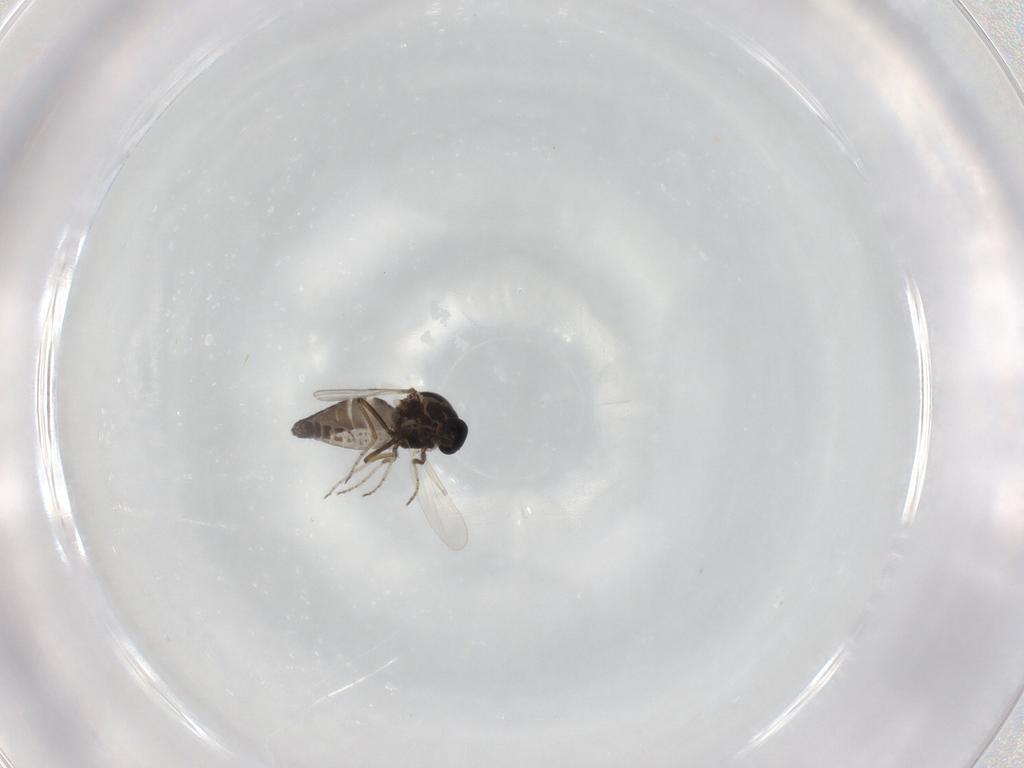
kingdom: Animalia
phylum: Arthropoda
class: Insecta
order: Diptera
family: Ceratopogonidae
